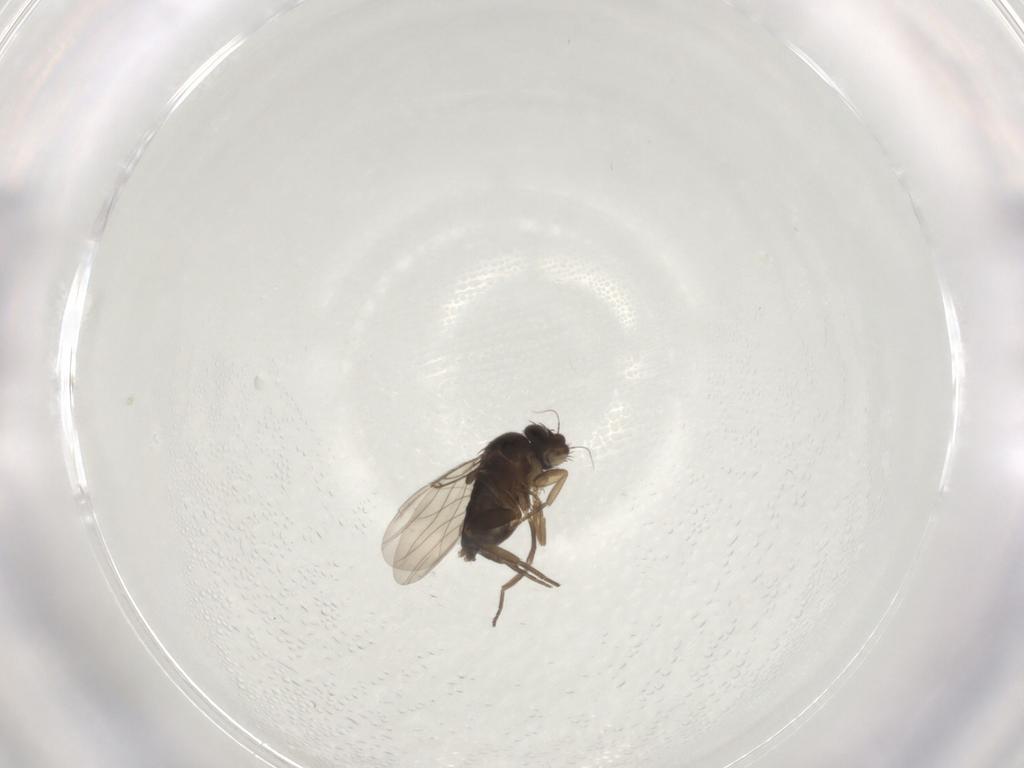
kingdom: Animalia
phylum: Arthropoda
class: Insecta
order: Diptera
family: Phoridae
